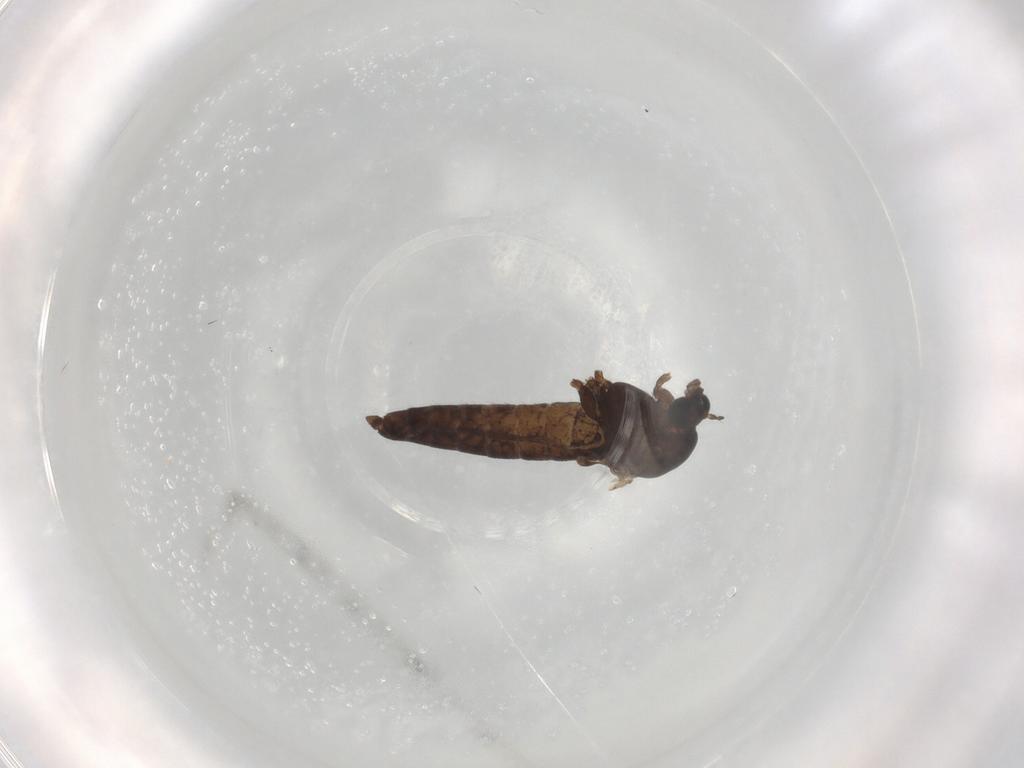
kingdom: Animalia
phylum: Arthropoda
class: Insecta
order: Diptera
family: Chironomidae
